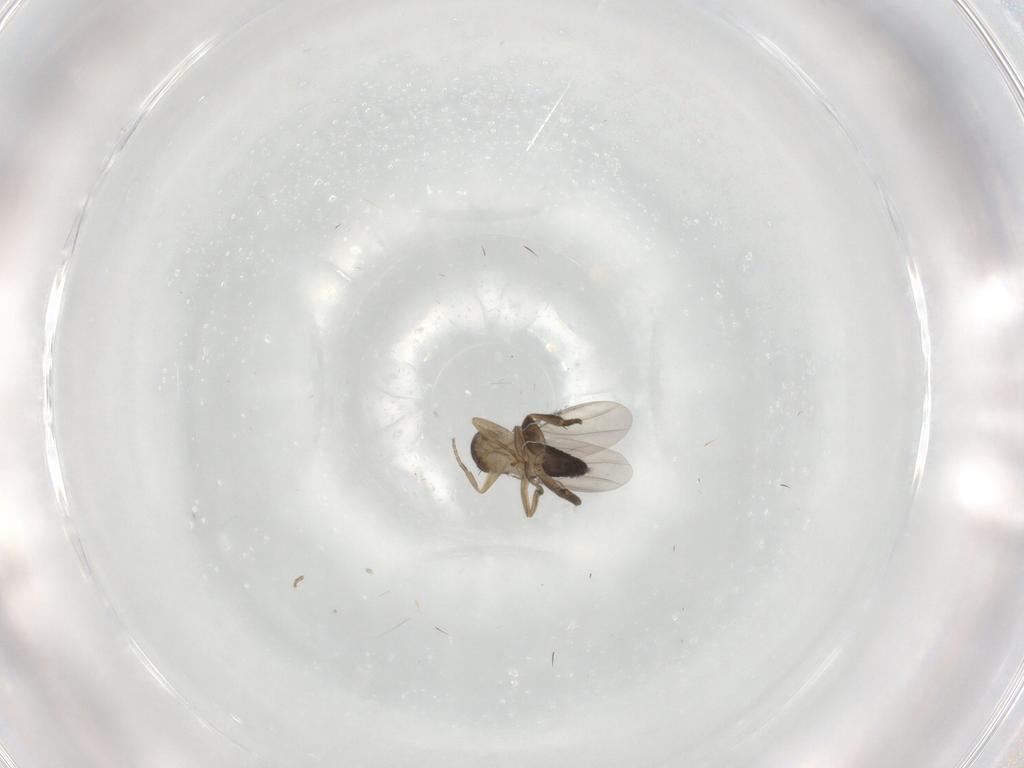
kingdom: Animalia
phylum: Arthropoda
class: Insecta
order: Diptera
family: Phoridae
